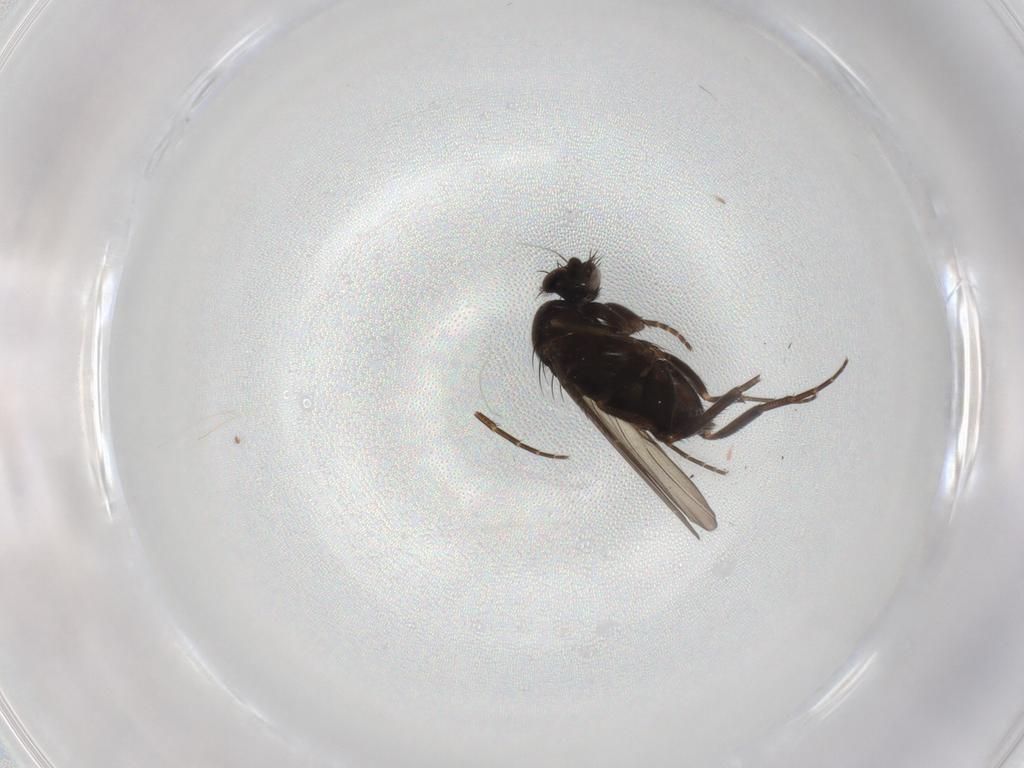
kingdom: Animalia
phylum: Arthropoda
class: Insecta
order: Diptera
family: Phoridae
